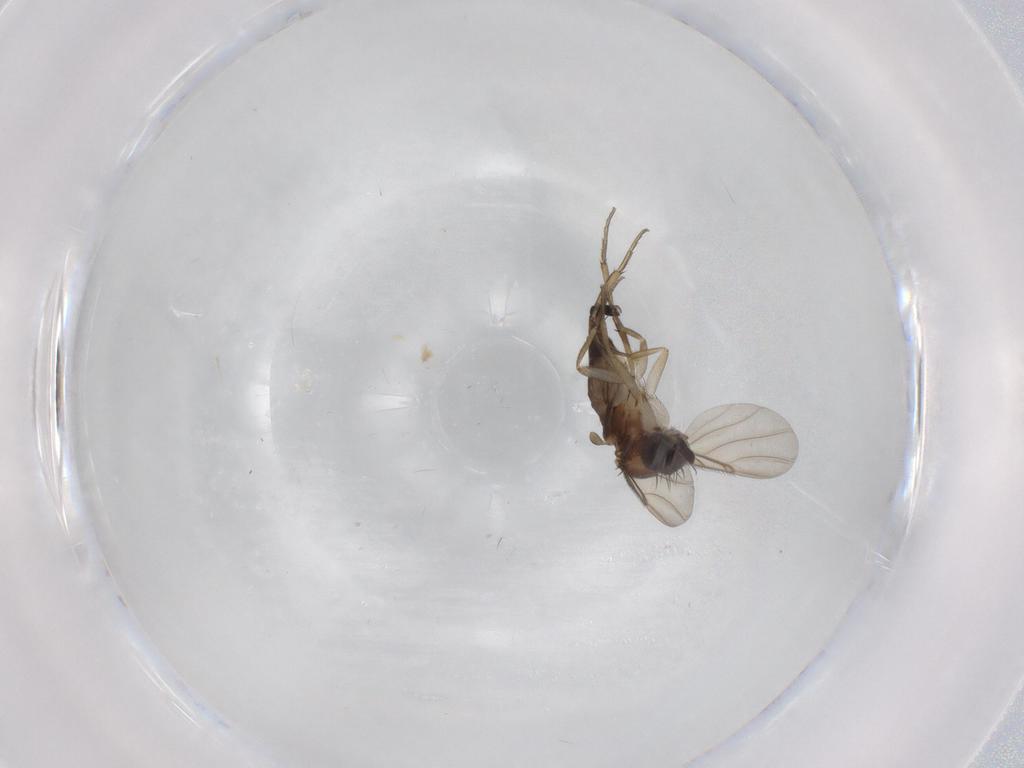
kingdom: Animalia
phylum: Arthropoda
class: Insecta
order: Diptera
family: Phoridae
